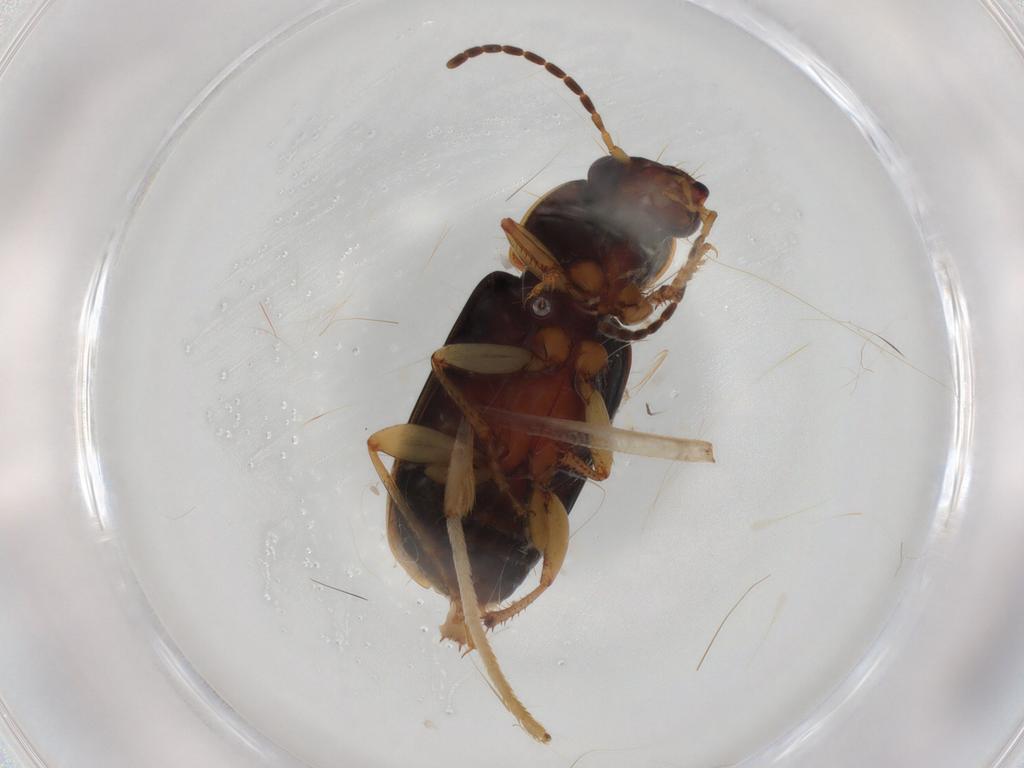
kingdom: Animalia
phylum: Arthropoda
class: Insecta
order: Coleoptera
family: Carabidae
